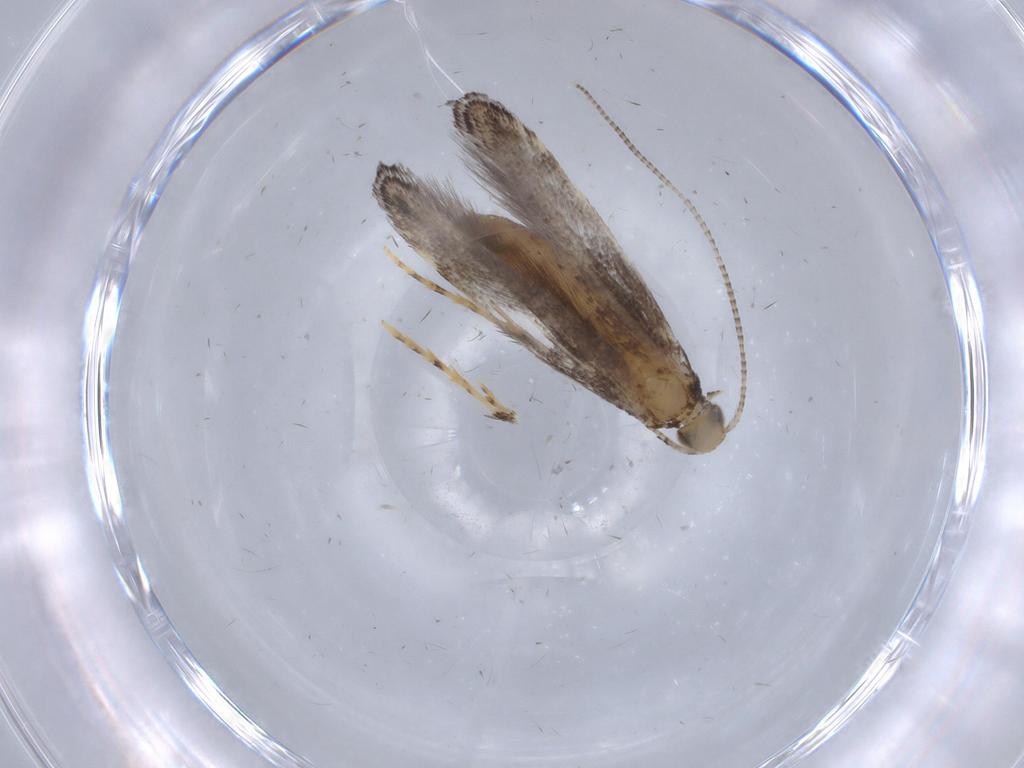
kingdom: Animalia
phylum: Arthropoda
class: Insecta
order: Lepidoptera
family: Gracillariidae
